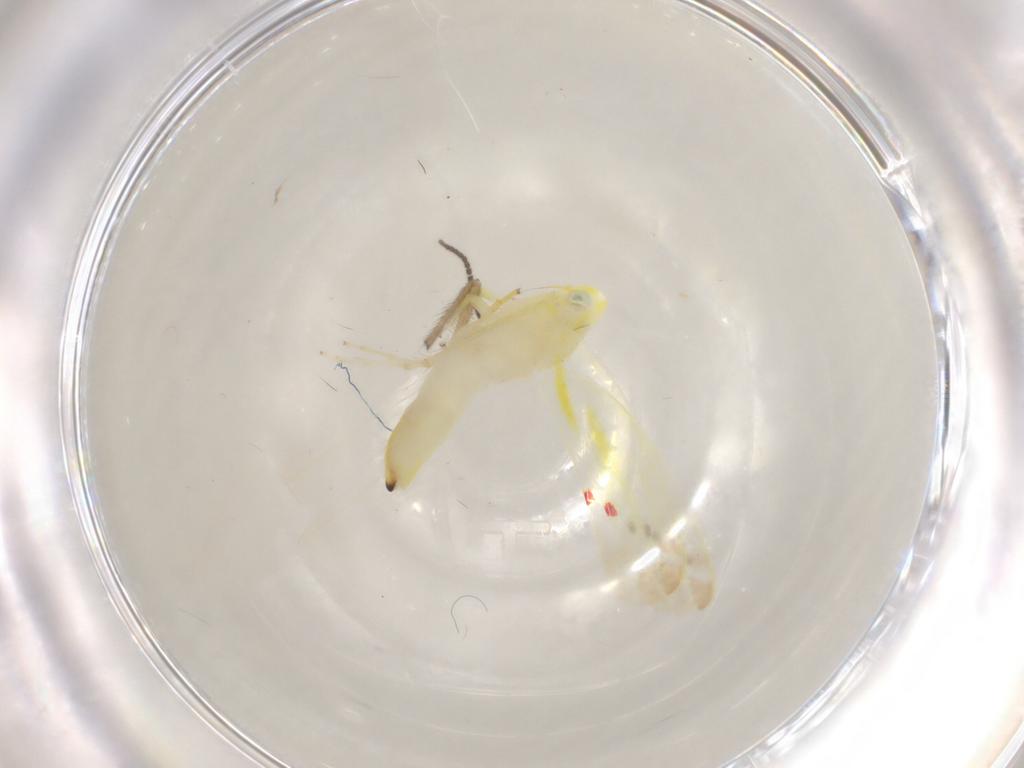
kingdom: Animalia
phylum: Arthropoda
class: Insecta
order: Hemiptera
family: Cicadellidae
